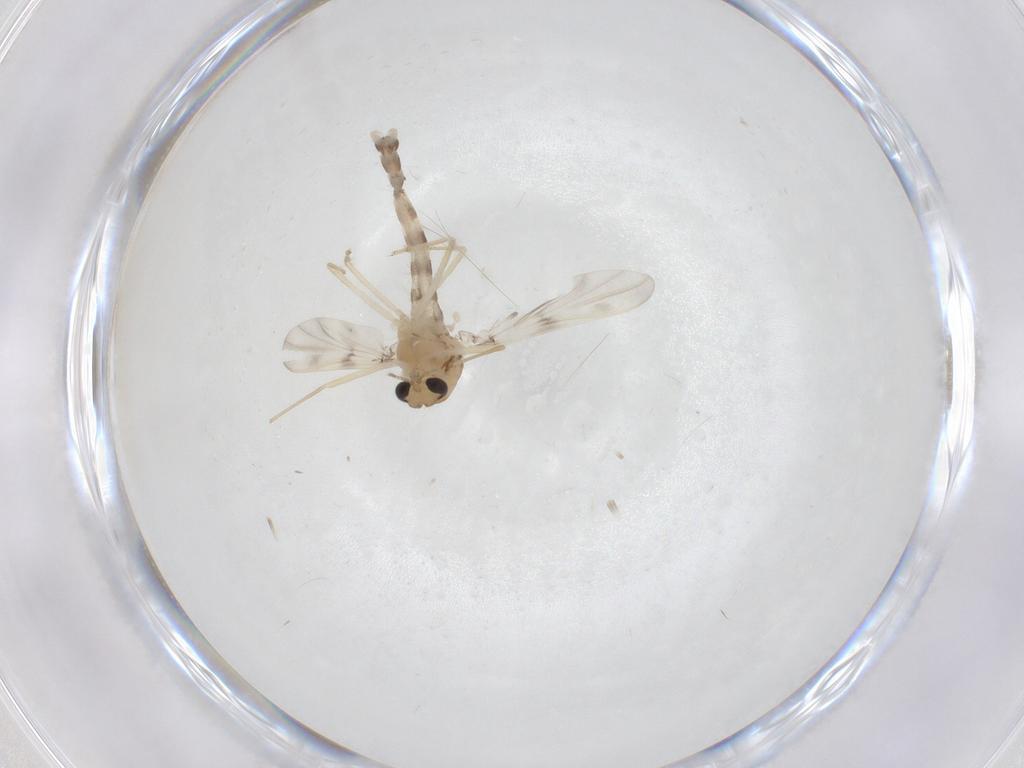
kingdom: Animalia
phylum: Arthropoda
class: Insecta
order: Diptera
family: Chironomidae
